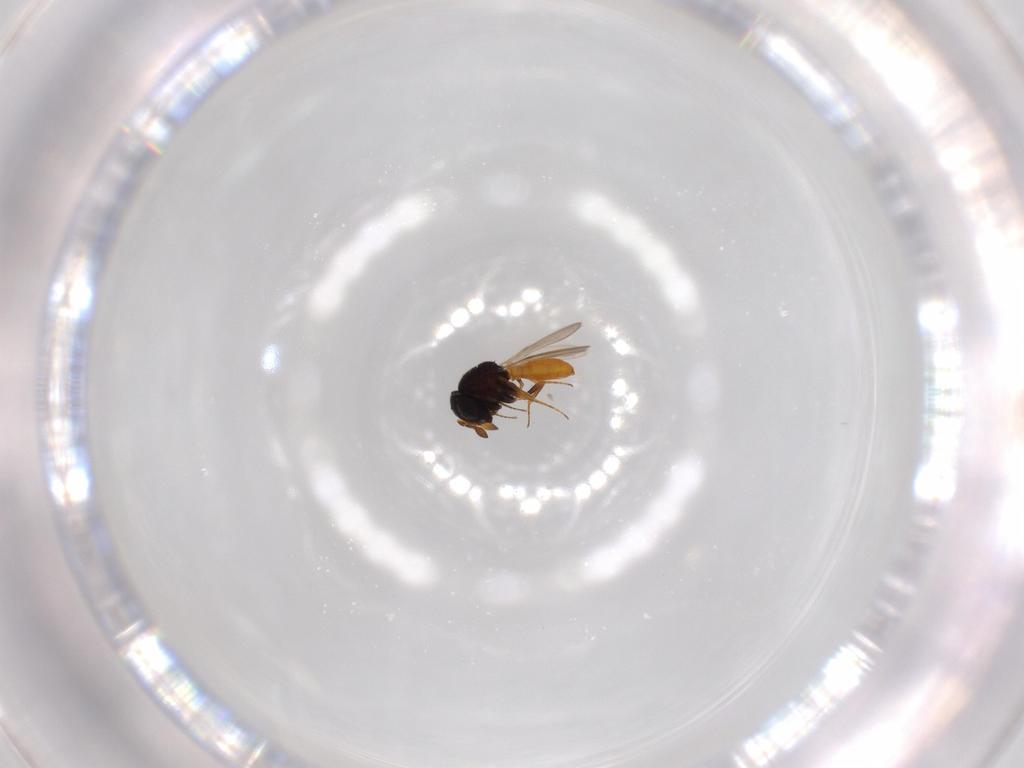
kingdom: Animalia
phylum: Arthropoda
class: Insecta
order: Hymenoptera
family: Scelionidae
